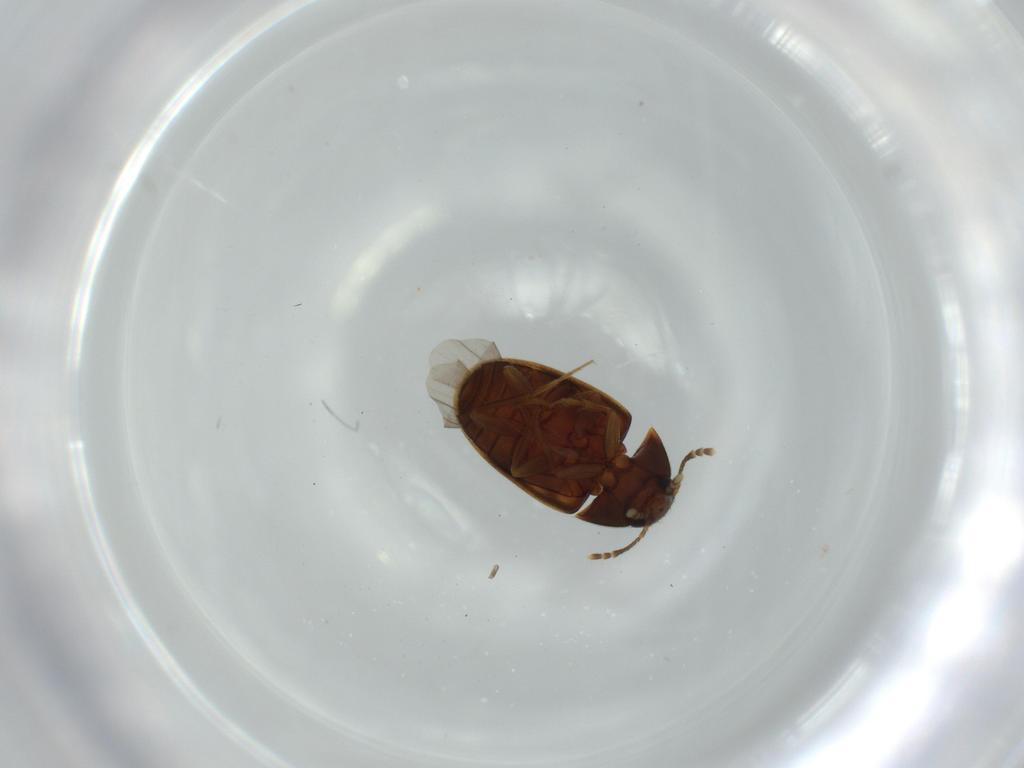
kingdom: Animalia
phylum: Arthropoda
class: Insecta
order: Coleoptera
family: Mycetophagidae
